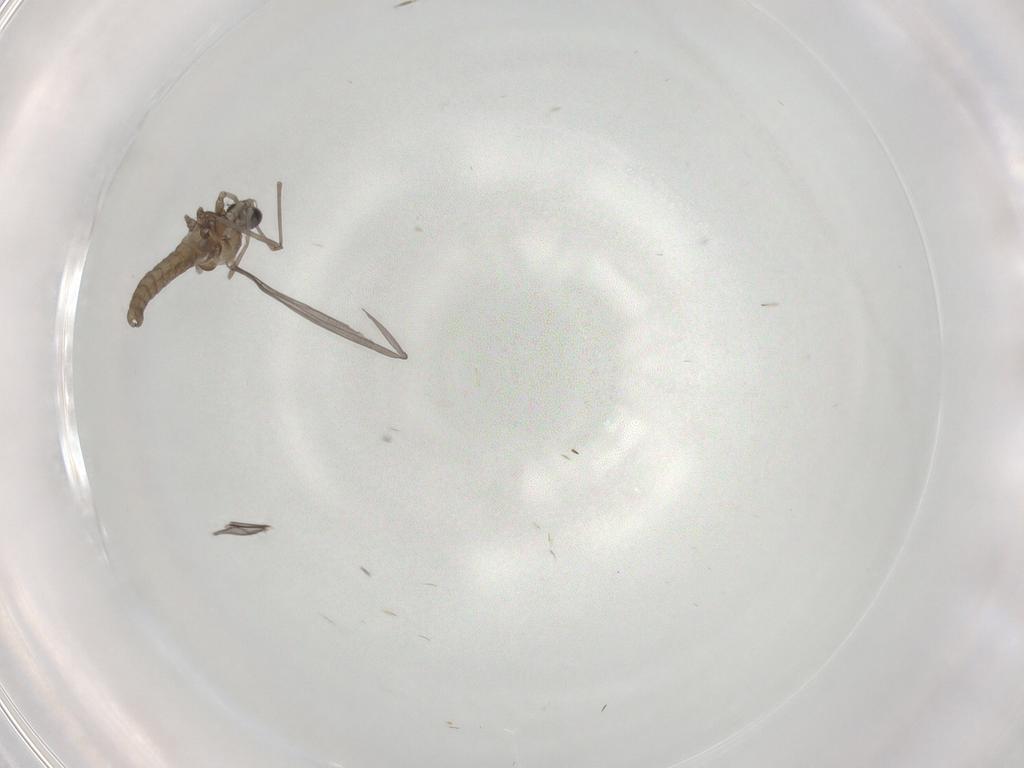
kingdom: Animalia
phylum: Arthropoda
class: Insecta
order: Diptera
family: Cecidomyiidae
